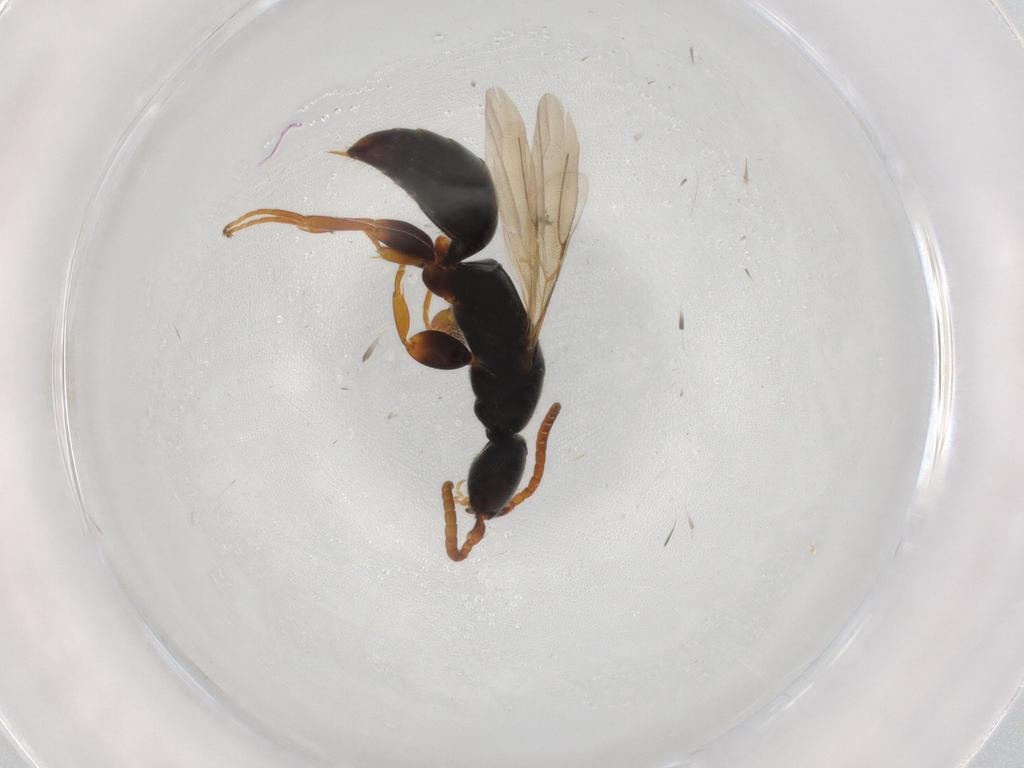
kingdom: Animalia
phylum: Arthropoda
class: Insecta
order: Hymenoptera
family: Bethylidae
